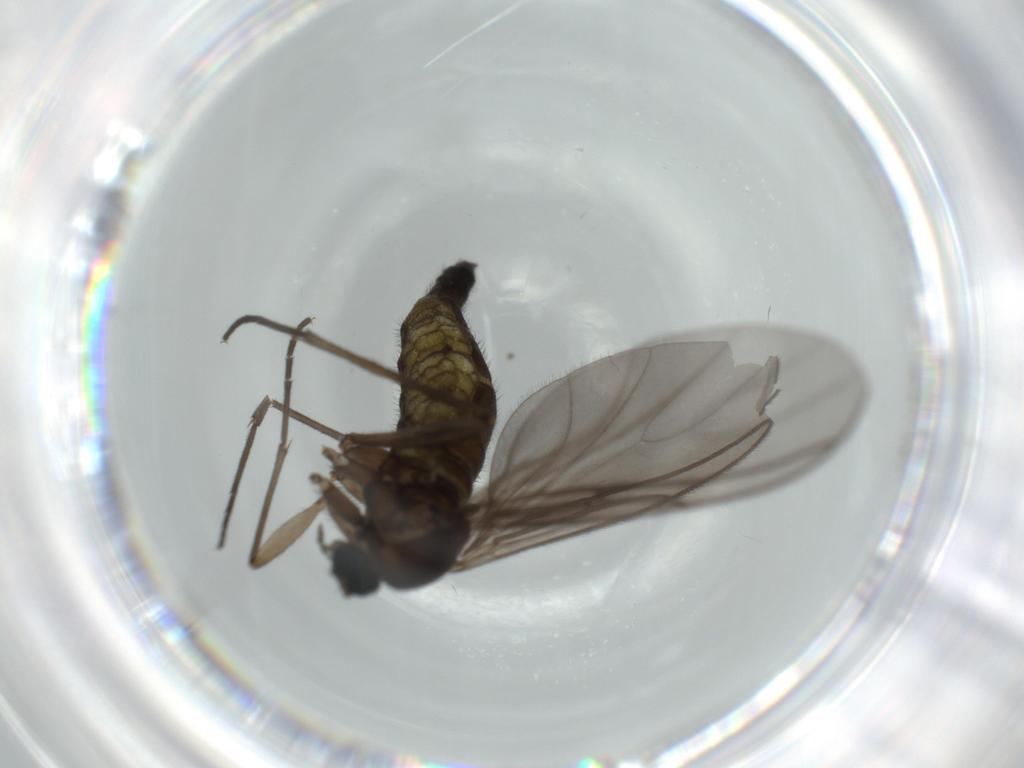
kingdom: Animalia
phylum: Arthropoda
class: Insecta
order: Diptera
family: Sciaridae
